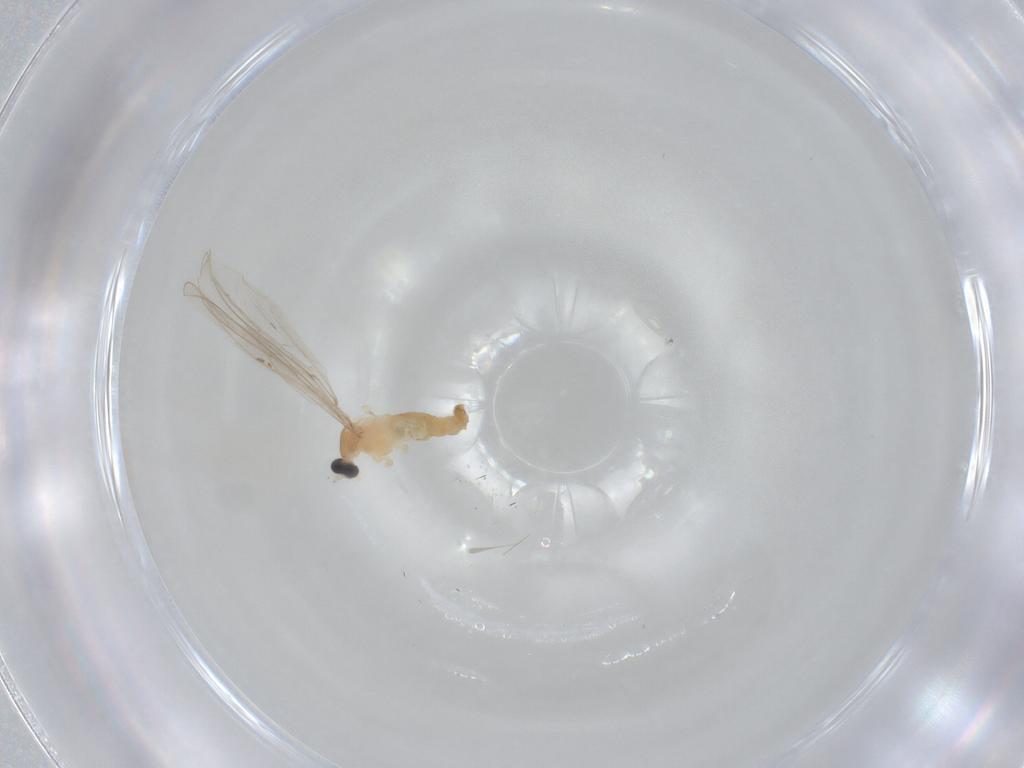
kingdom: Animalia
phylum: Arthropoda
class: Insecta
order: Diptera
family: Cecidomyiidae
